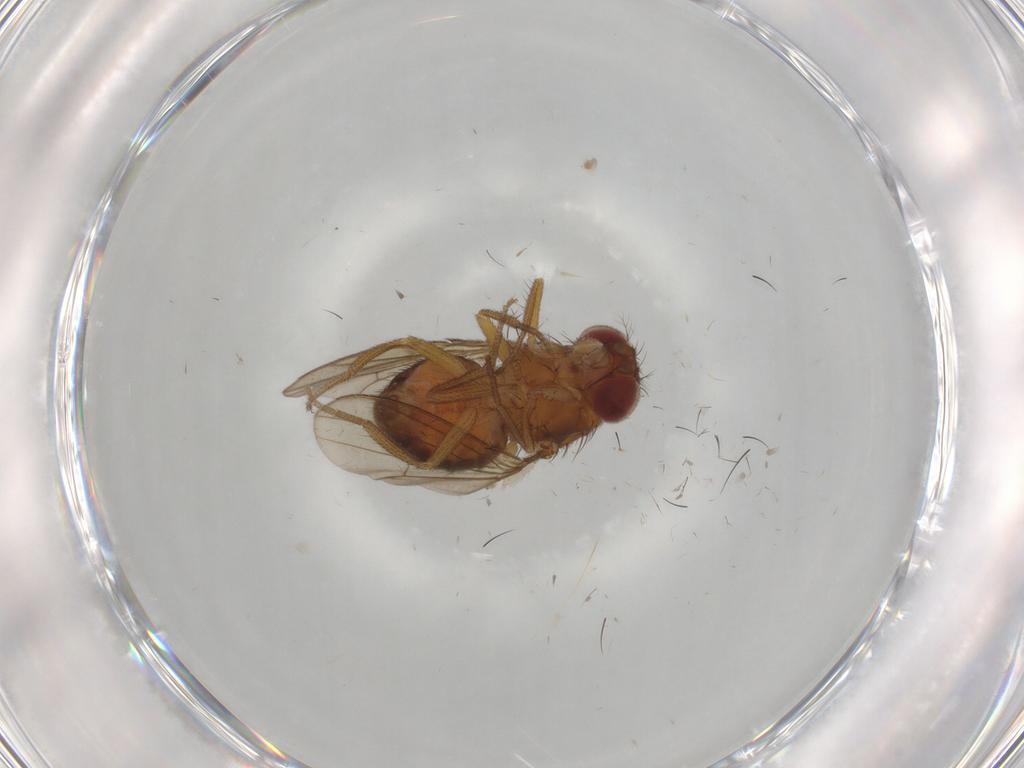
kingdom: Animalia
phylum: Arthropoda
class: Insecta
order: Diptera
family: Drosophilidae
